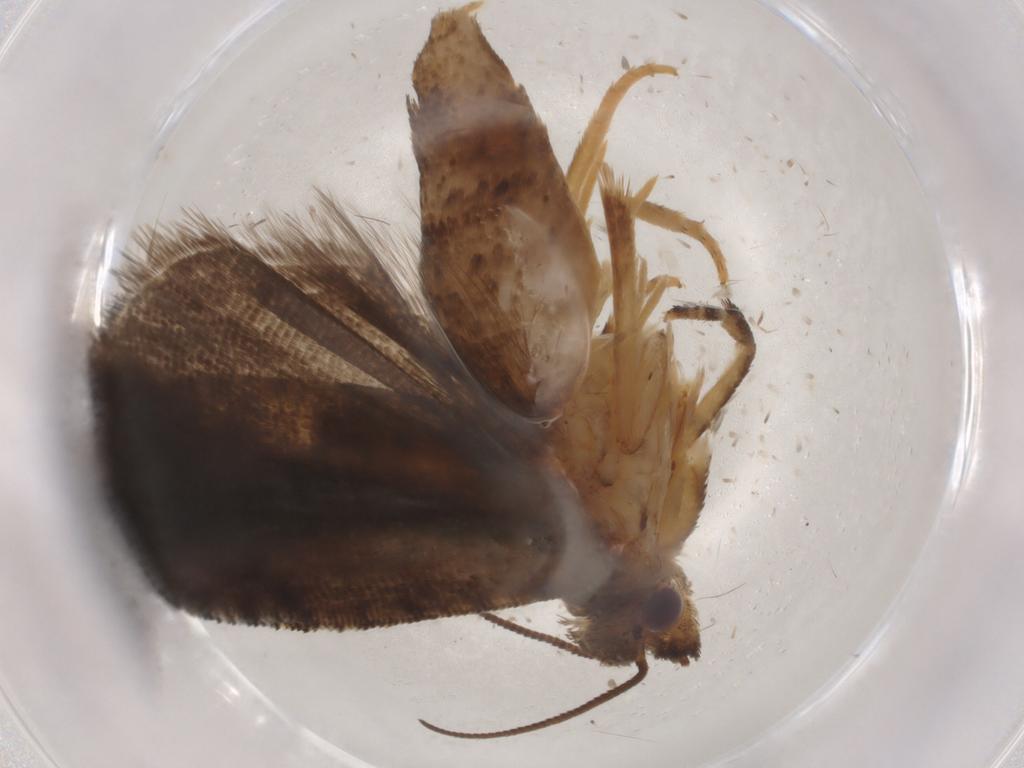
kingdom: Animalia
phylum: Arthropoda
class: Insecta
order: Lepidoptera
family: Tortricidae
